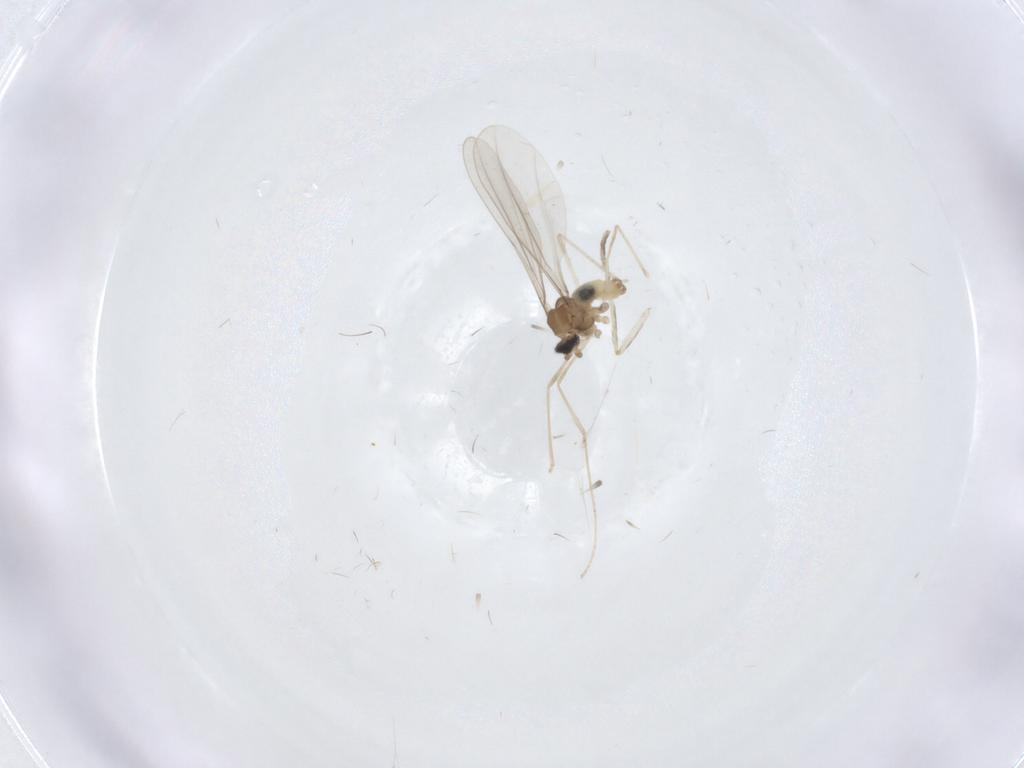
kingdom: Animalia
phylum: Arthropoda
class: Insecta
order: Diptera
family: Cecidomyiidae
